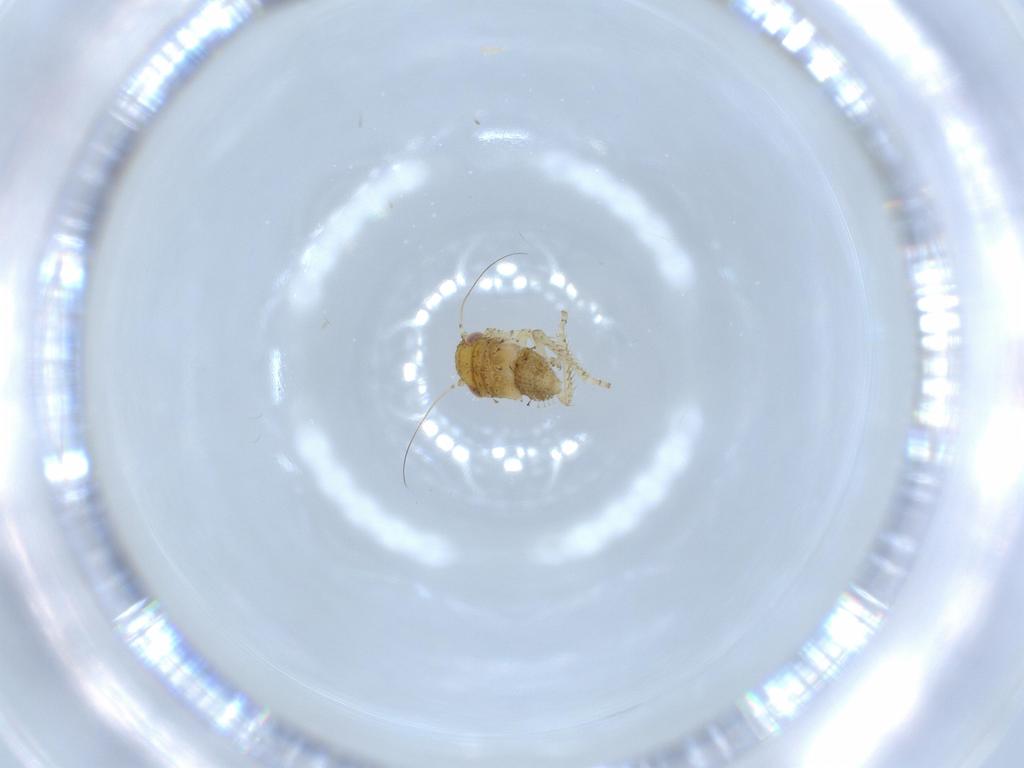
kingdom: Animalia
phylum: Arthropoda
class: Insecta
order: Hemiptera
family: Cicadellidae
